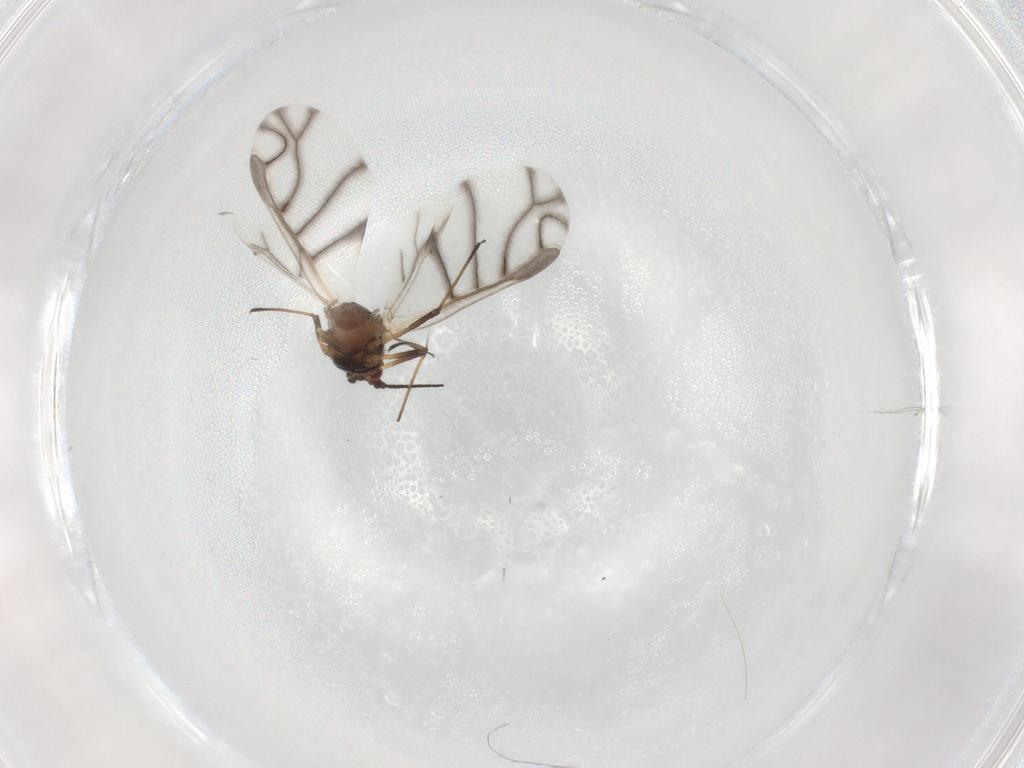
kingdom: Animalia
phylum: Arthropoda
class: Insecta
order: Hemiptera
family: Aphididae
